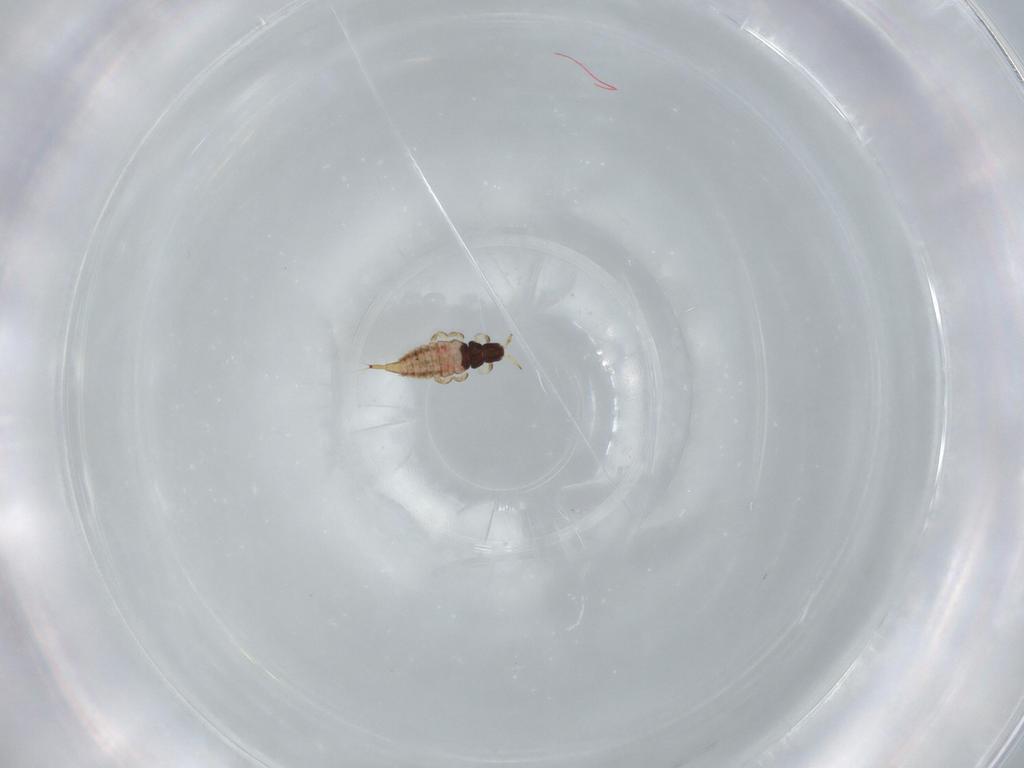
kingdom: Animalia
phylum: Arthropoda
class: Insecta
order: Thysanoptera
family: Phlaeothripidae
